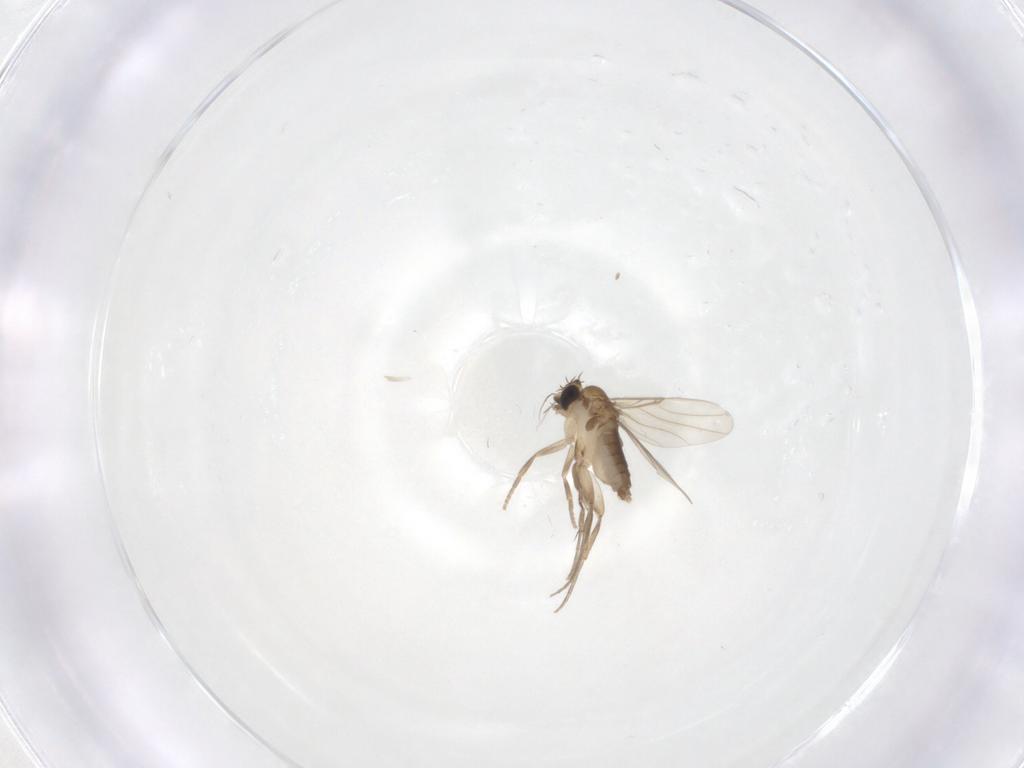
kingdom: Animalia
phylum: Arthropoda
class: Insecta
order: Diptera
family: Phoridae
